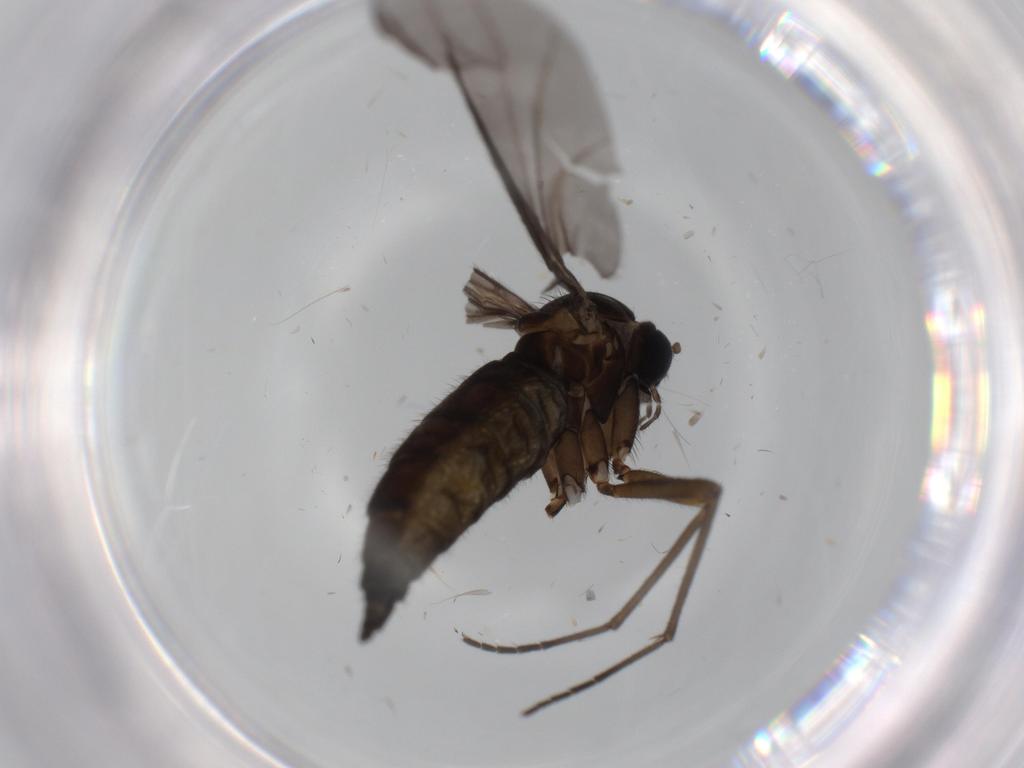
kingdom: Animalia
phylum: Arthropoda
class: Insecta
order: Diptera
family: Sciaridae
